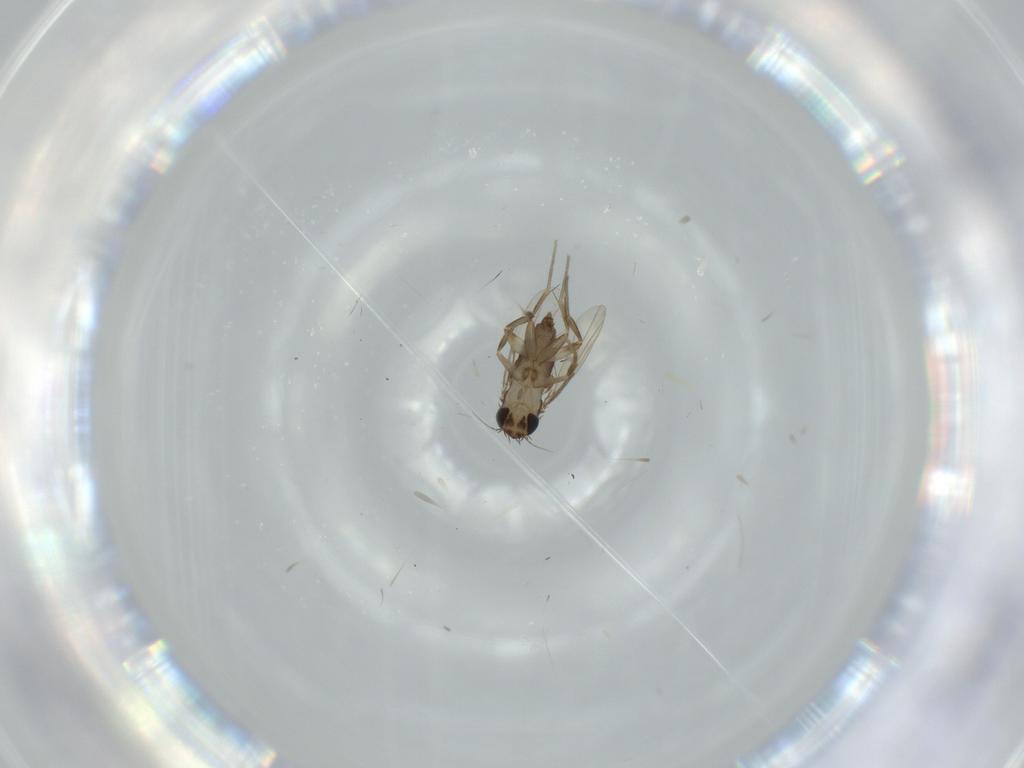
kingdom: Animalia
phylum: Arthropoda
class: Insecta
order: Diptera
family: Phoridae
